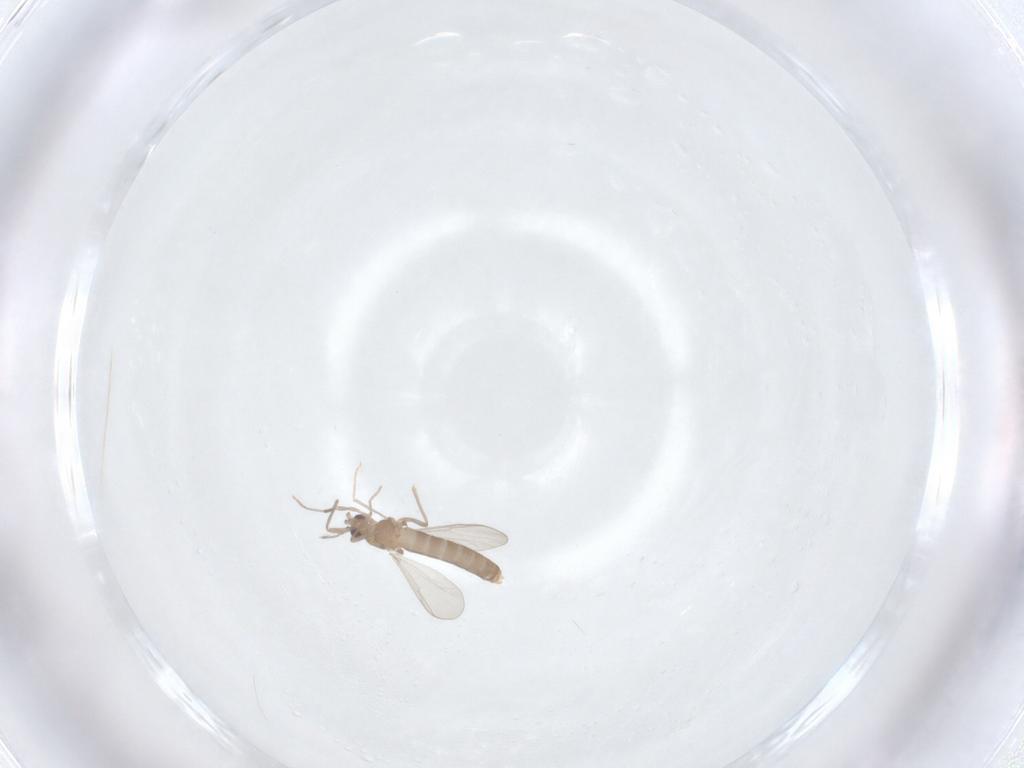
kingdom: Animalia
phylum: Arthropoda
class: Insecta
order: Diptera
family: Chironomidae
